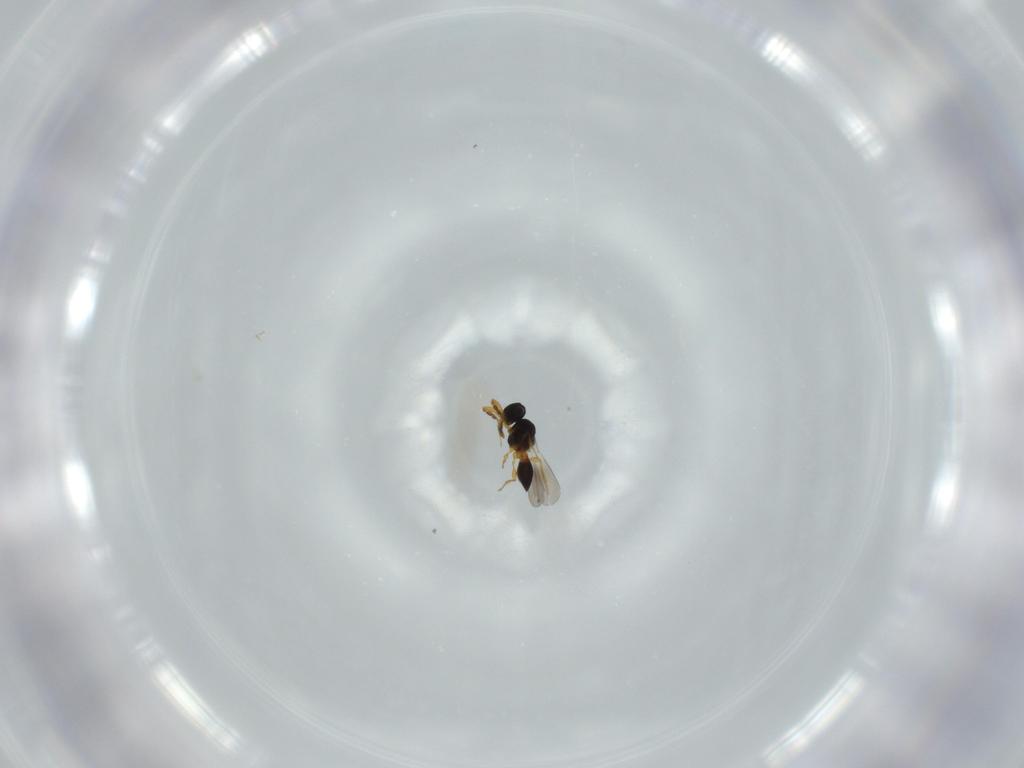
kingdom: Animalia
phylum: Arthropoda
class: Insecta
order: Hymenoptera
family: Platygastridae
